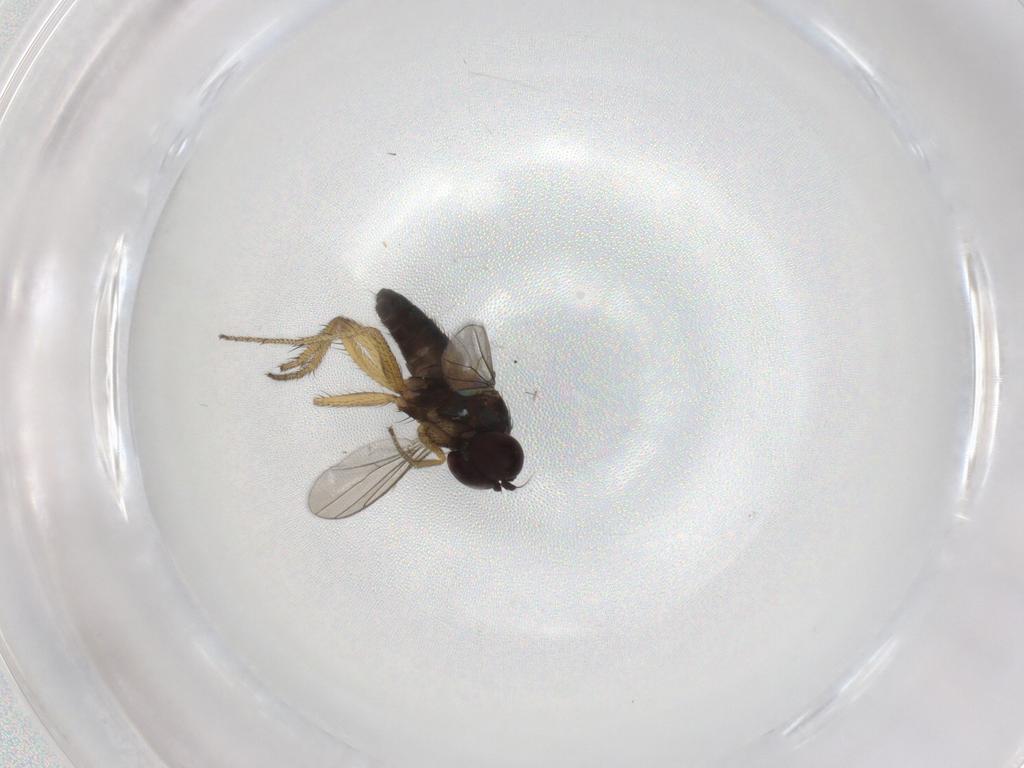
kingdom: Animalia
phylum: Arthropoda
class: Insecta
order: Diptera
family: Dolichopodidae
